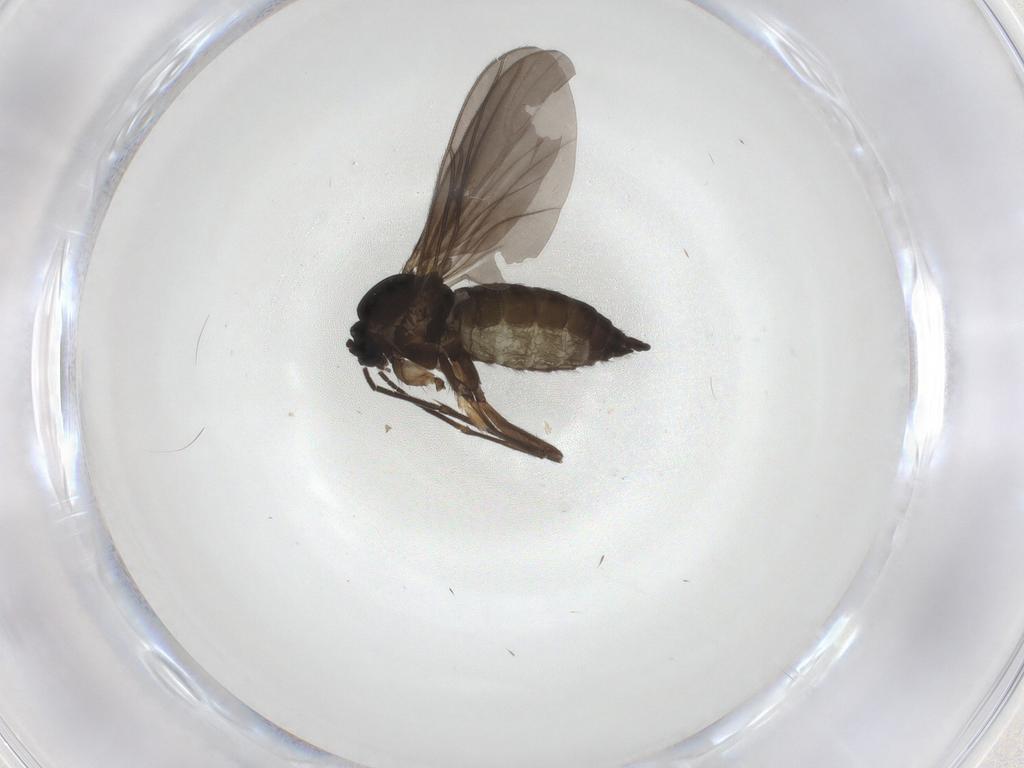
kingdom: Animalia
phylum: Arthropoda
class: Insecta
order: Diptera
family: Sciaridae
